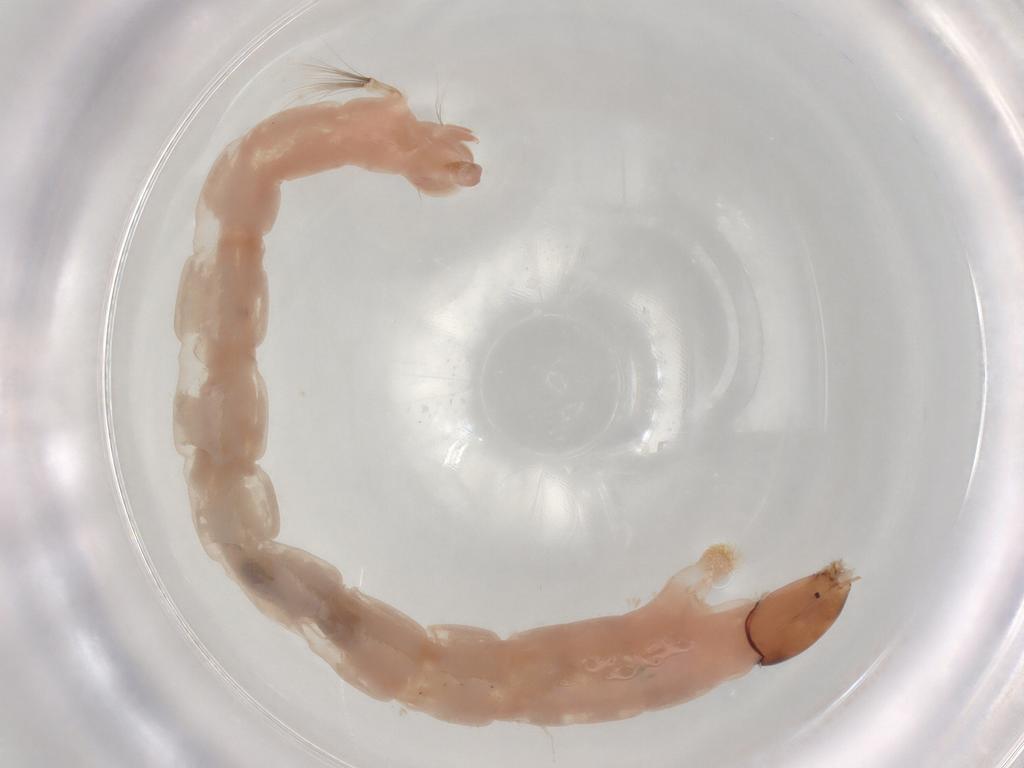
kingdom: Animalia
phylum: Arthropoda
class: Insecta
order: Diptera
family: Chironomidae
